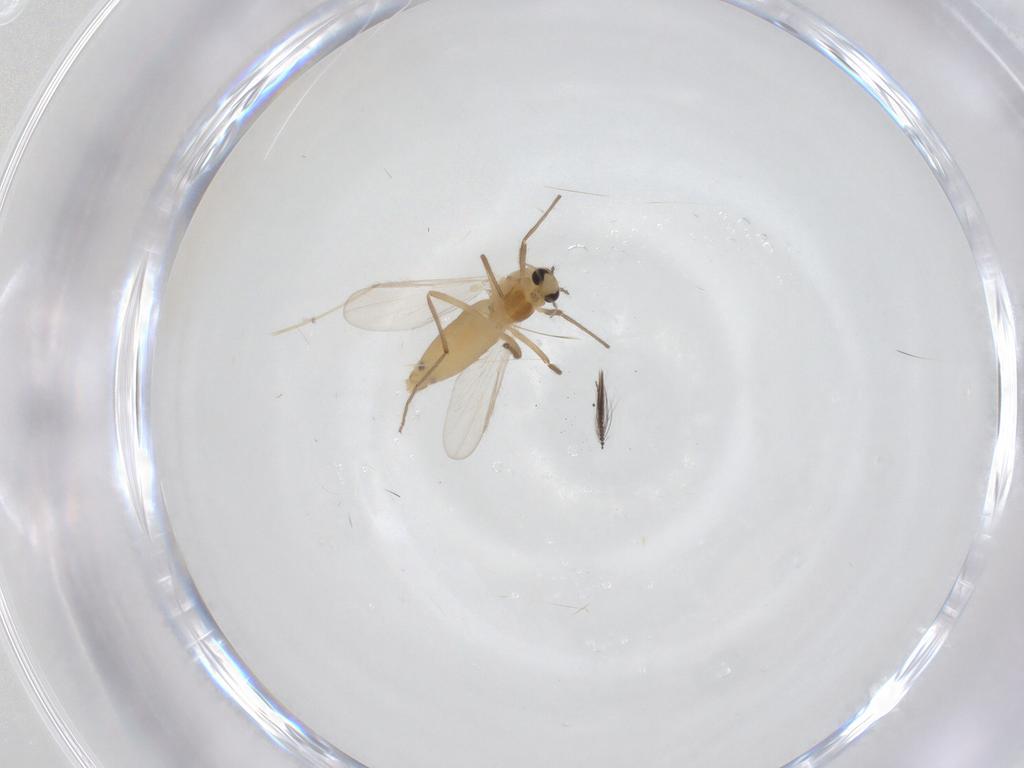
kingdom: Animalia
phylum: Arthropoda
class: Insecta
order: Diptera
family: Chironomidae
